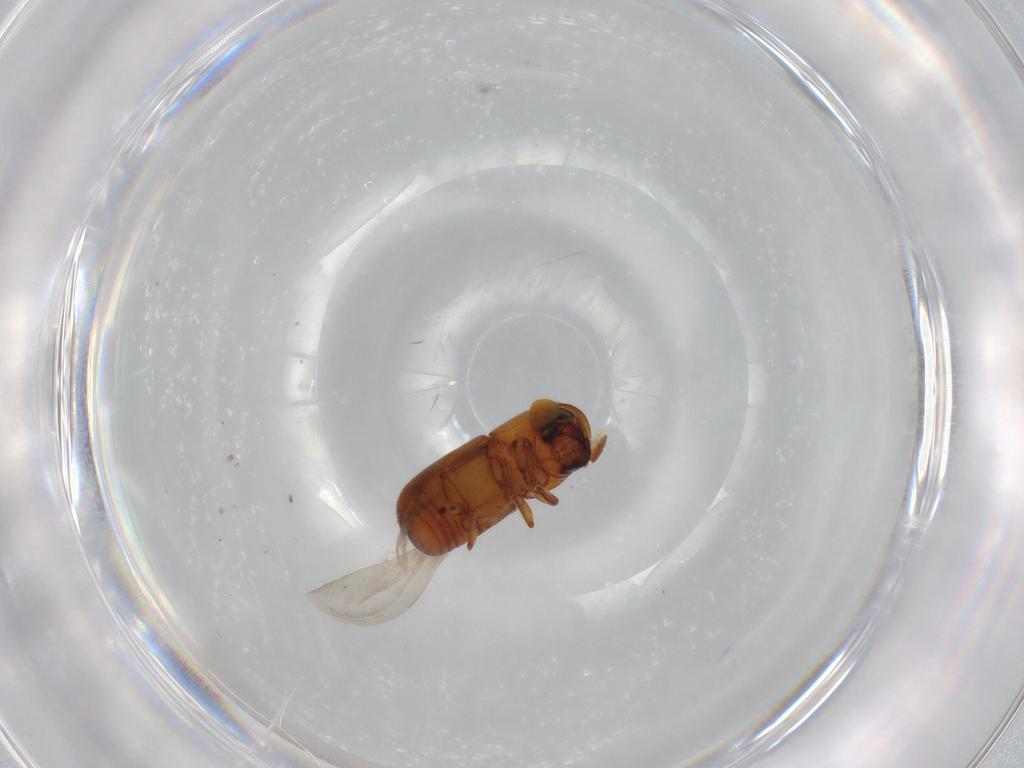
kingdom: Animalia
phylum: Arthropoda
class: Insecta
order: Coleoptera
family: Curculionidae
